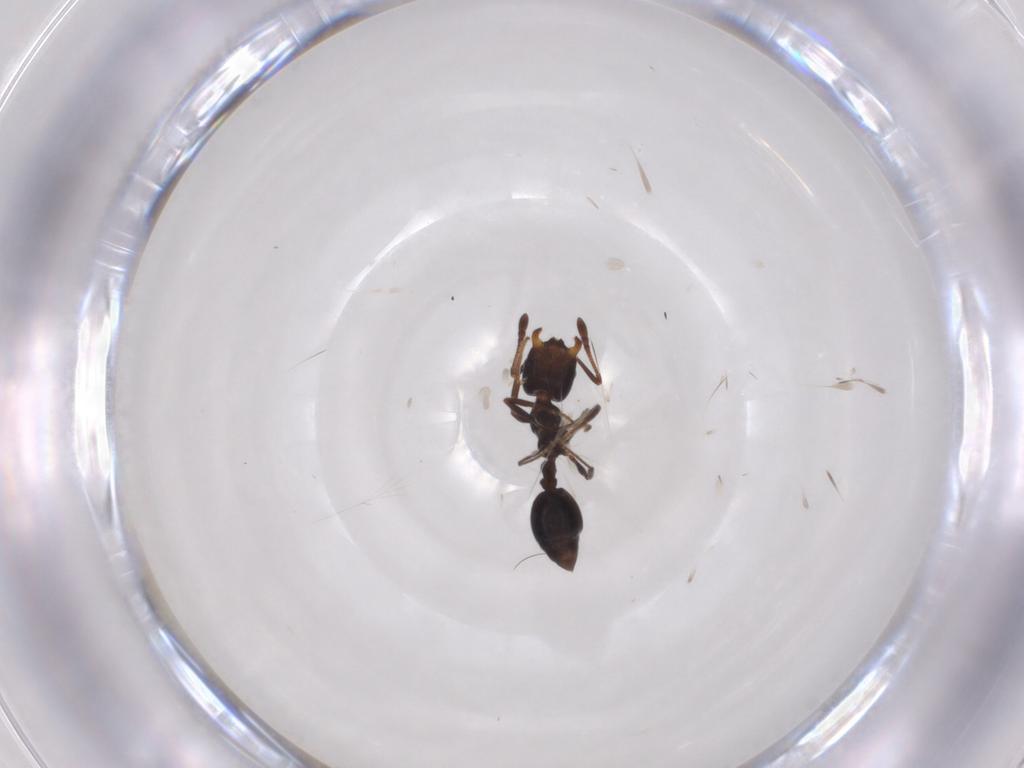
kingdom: Animalia
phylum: Arthropoda
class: Insecta
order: Hymenoptera
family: Formicidae
